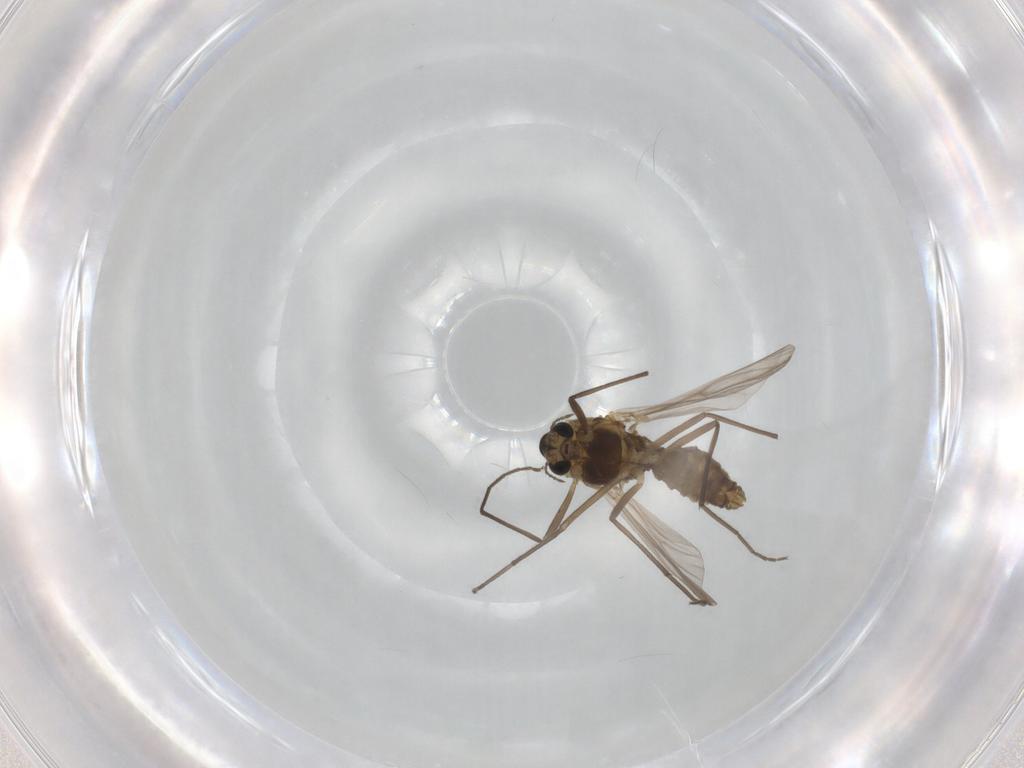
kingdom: Animalia
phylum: Arthropoda
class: Insecta
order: Diptera
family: Chironomidae
